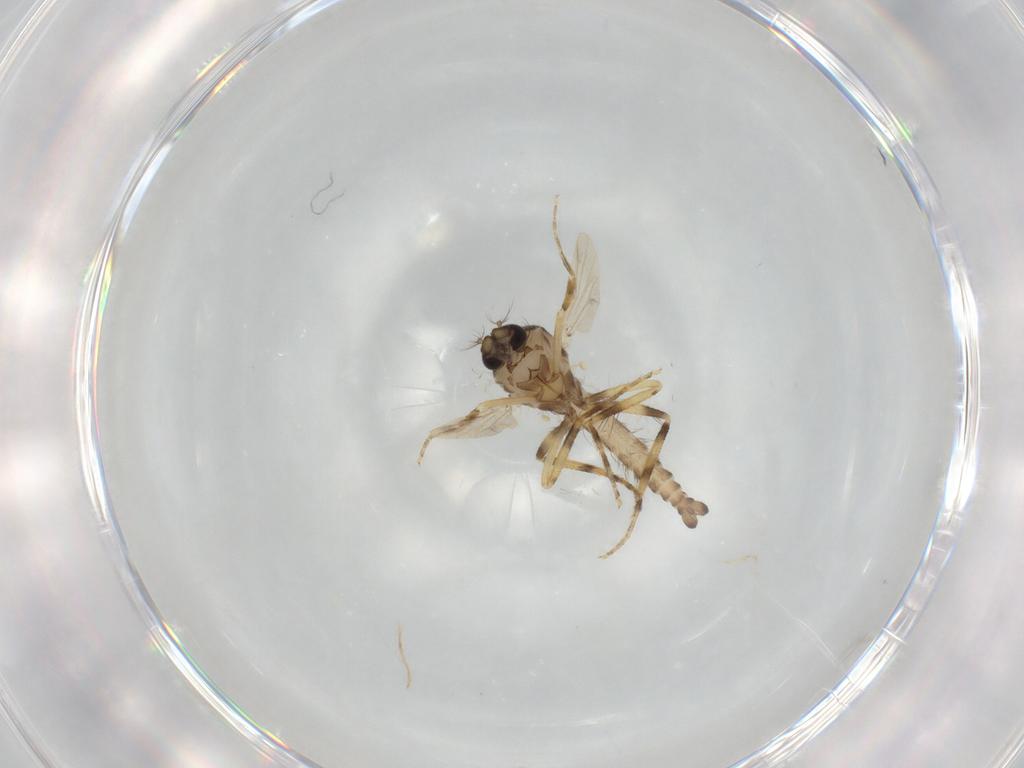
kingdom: Animalia
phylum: Arthropoda
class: Insecta
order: Diptera
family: Ceratopogonidae
